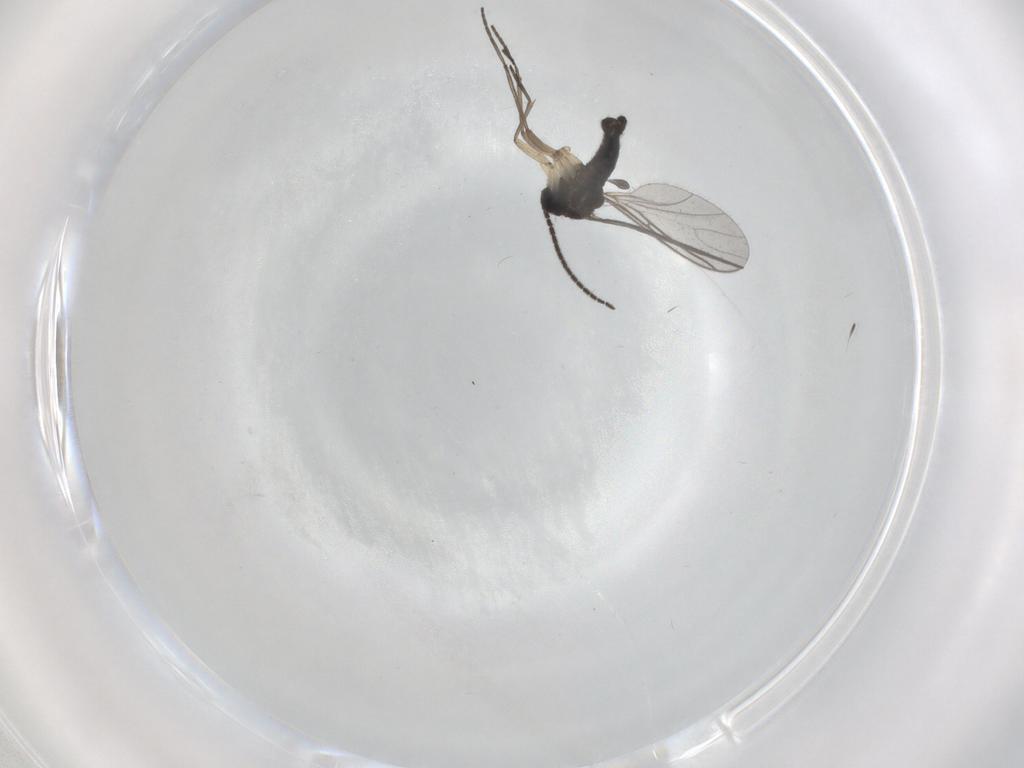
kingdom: Animalia
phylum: Arthropoda
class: Insecta
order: Diptera
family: Sciaridae
